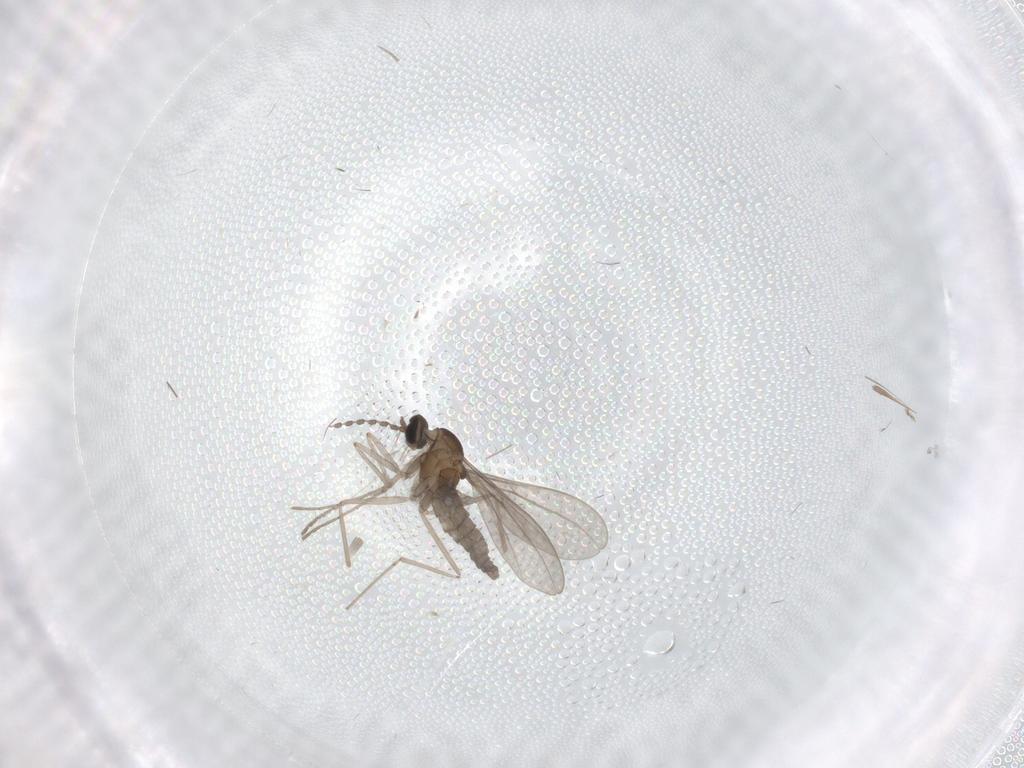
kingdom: Animalia
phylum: Arthropoda
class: Insecta
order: Diptera
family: Cecidomyiidae
